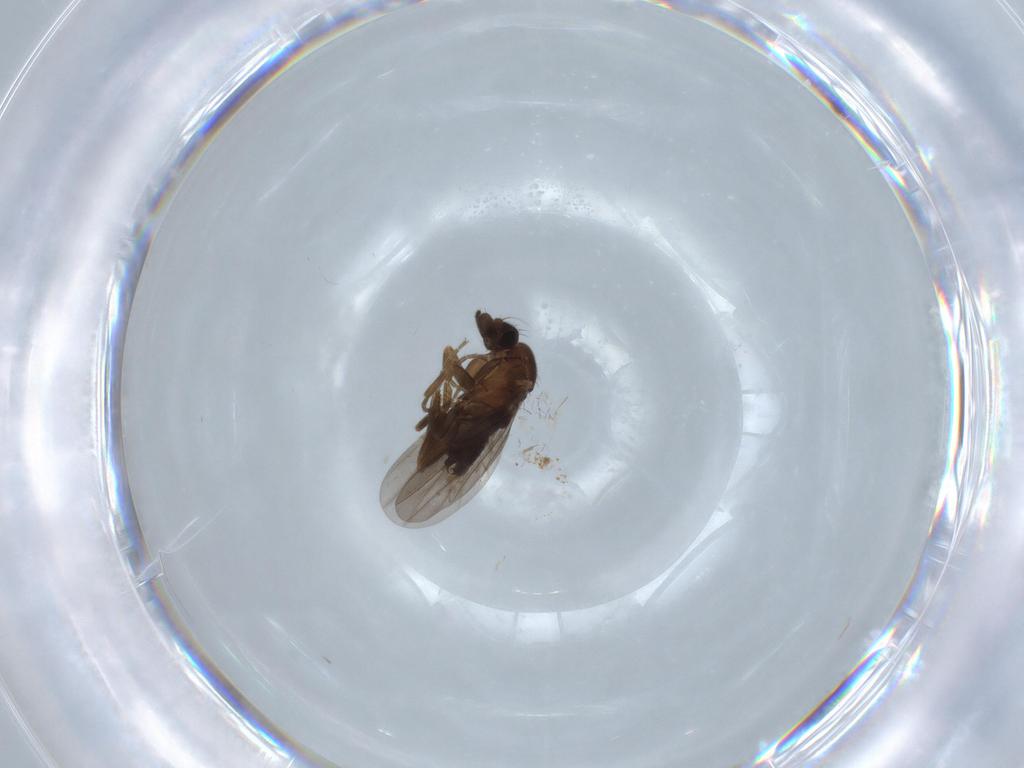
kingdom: Animalia
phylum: Arthropoda
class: Insecta
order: Diptera
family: Phoridae
